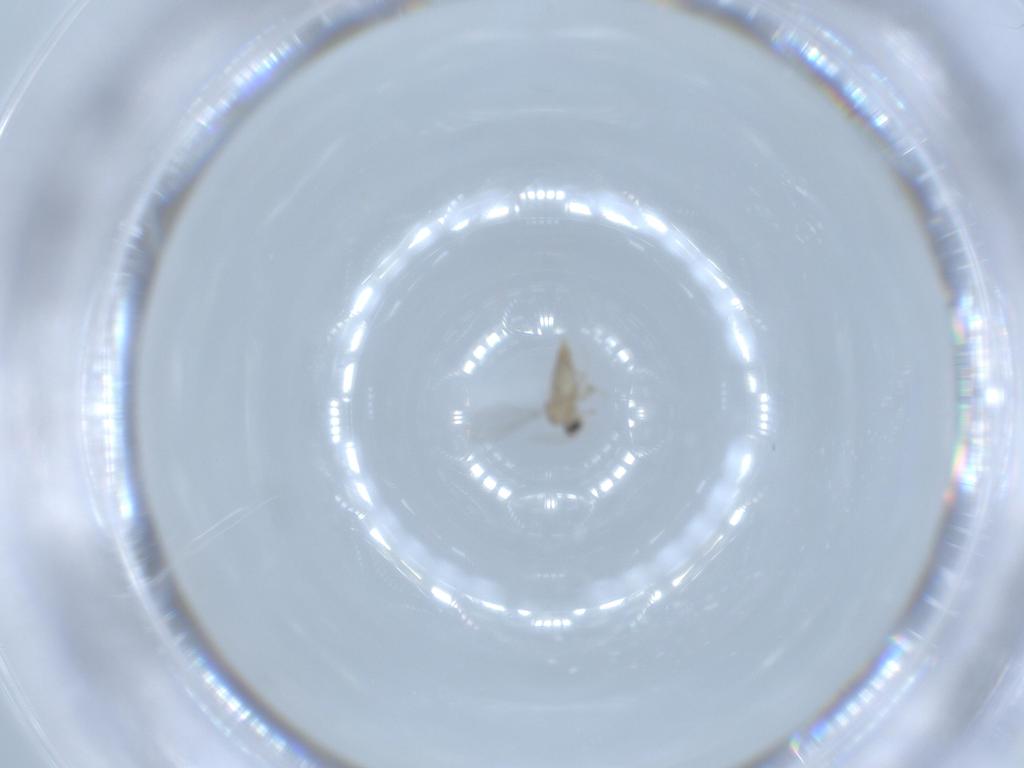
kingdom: Animalia
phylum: Arthropoda
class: Insecta
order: Diptera
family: Cecidomyiidae
